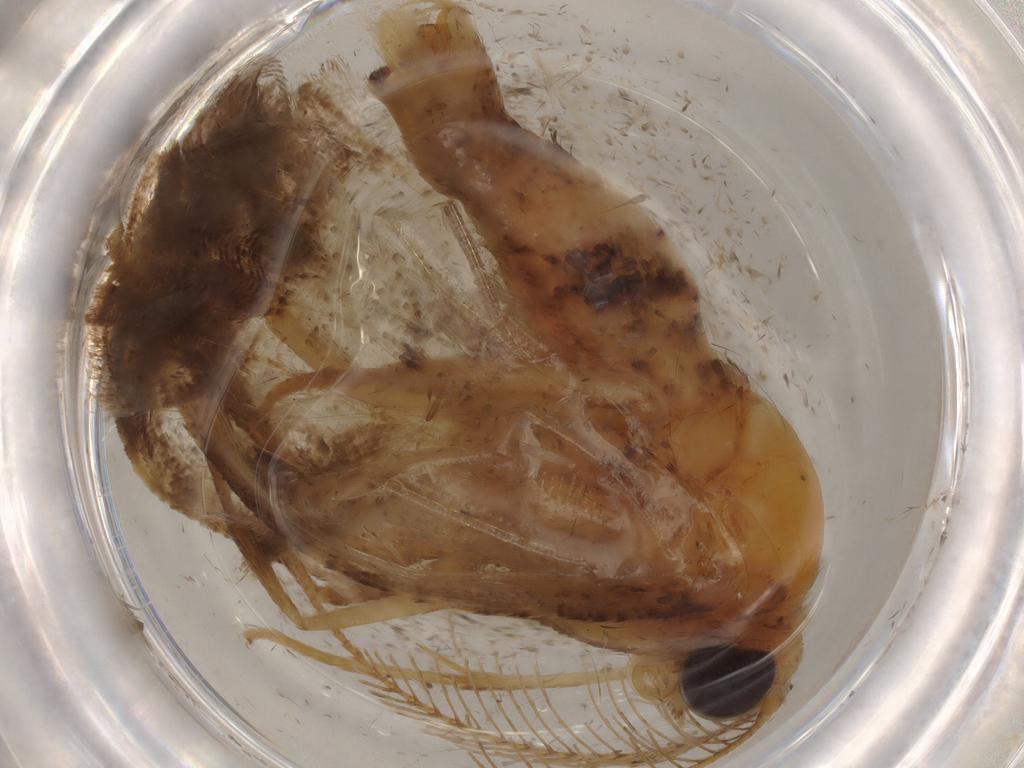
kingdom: Animalia
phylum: Arthropoda
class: Insecta
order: Lepidoptera
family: Geometridae
